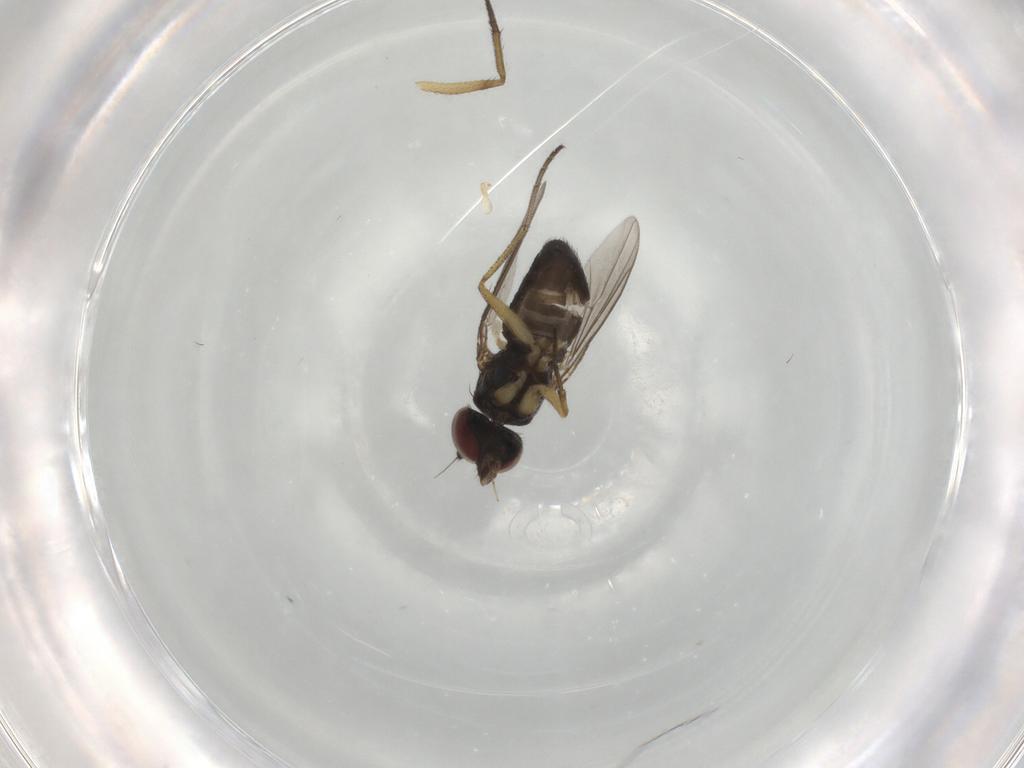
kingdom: Animalia
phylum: Arthropoda
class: Insecta
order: Diptera
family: Dolichopodidae
